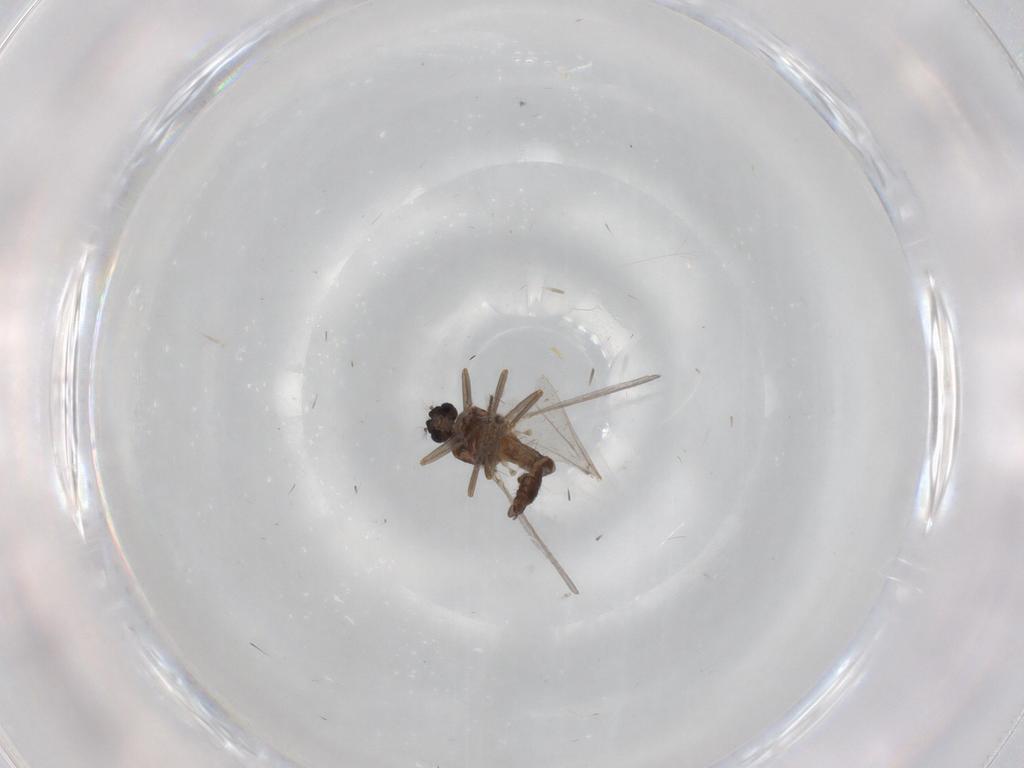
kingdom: Animalia
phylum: Arthropoda
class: Insecta
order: Diptera
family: Ceratopogonidae
